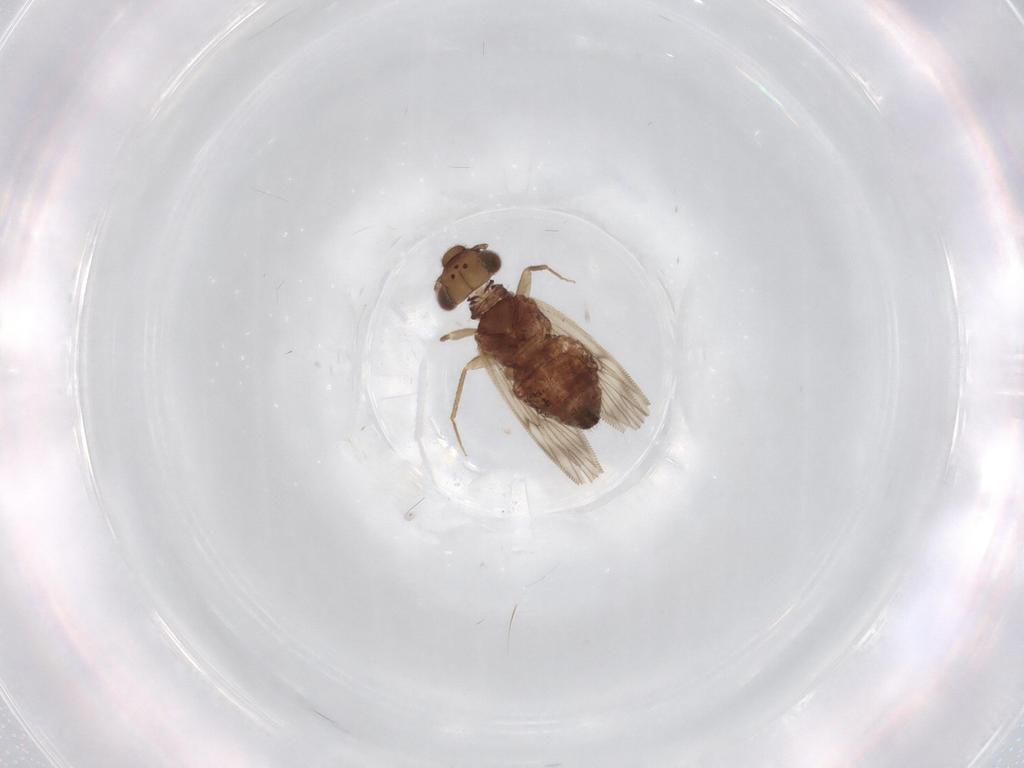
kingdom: Animalia
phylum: Arthropoda
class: Insecta
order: Psocodea
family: Lepidopsocidae
